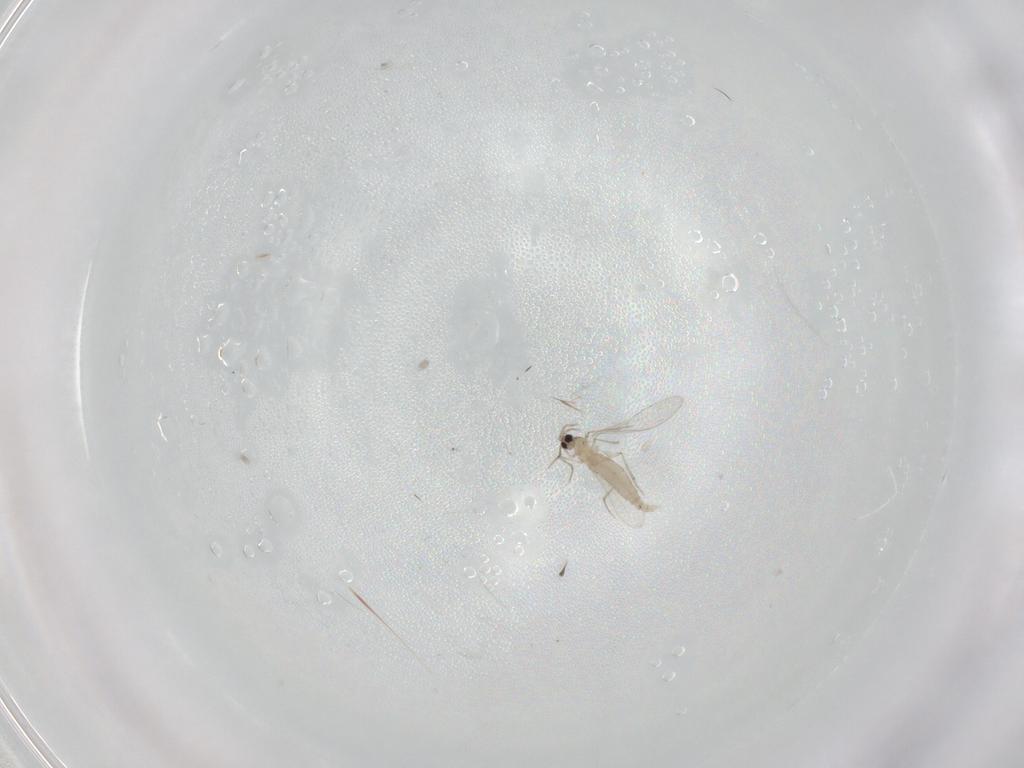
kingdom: Animalia
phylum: Arthropoda
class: Insecta
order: Diptera
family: Cecidomyiidae
